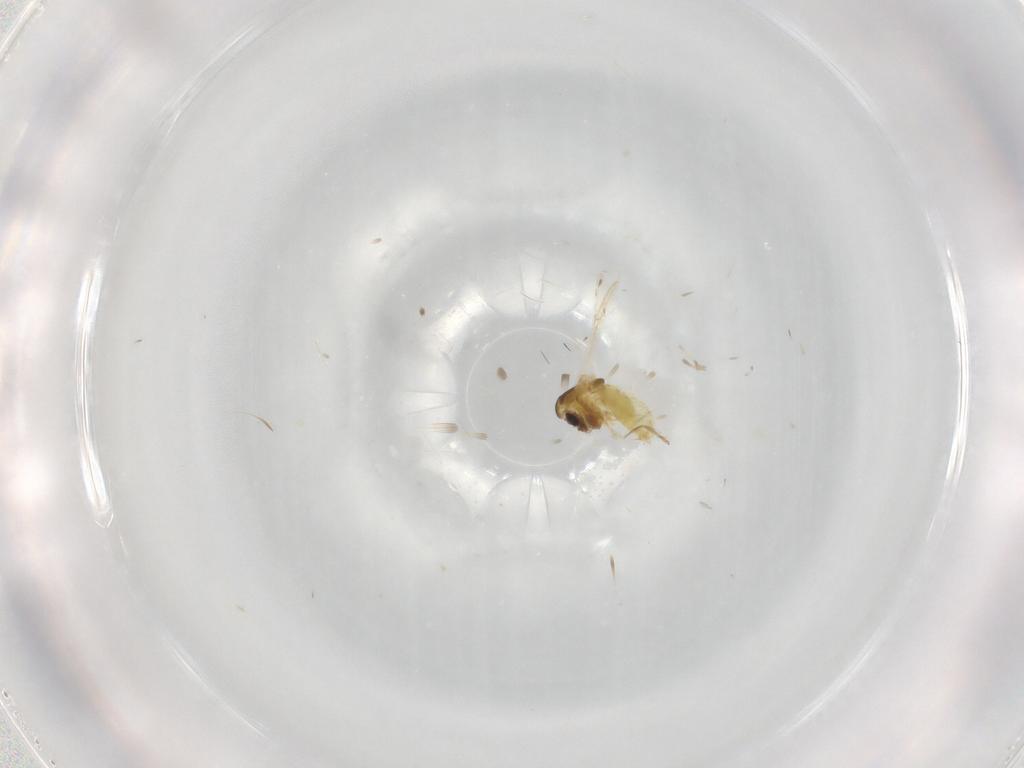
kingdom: Animalia
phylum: Arthropoda
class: Insecta
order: Diptera
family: Chironomidae
